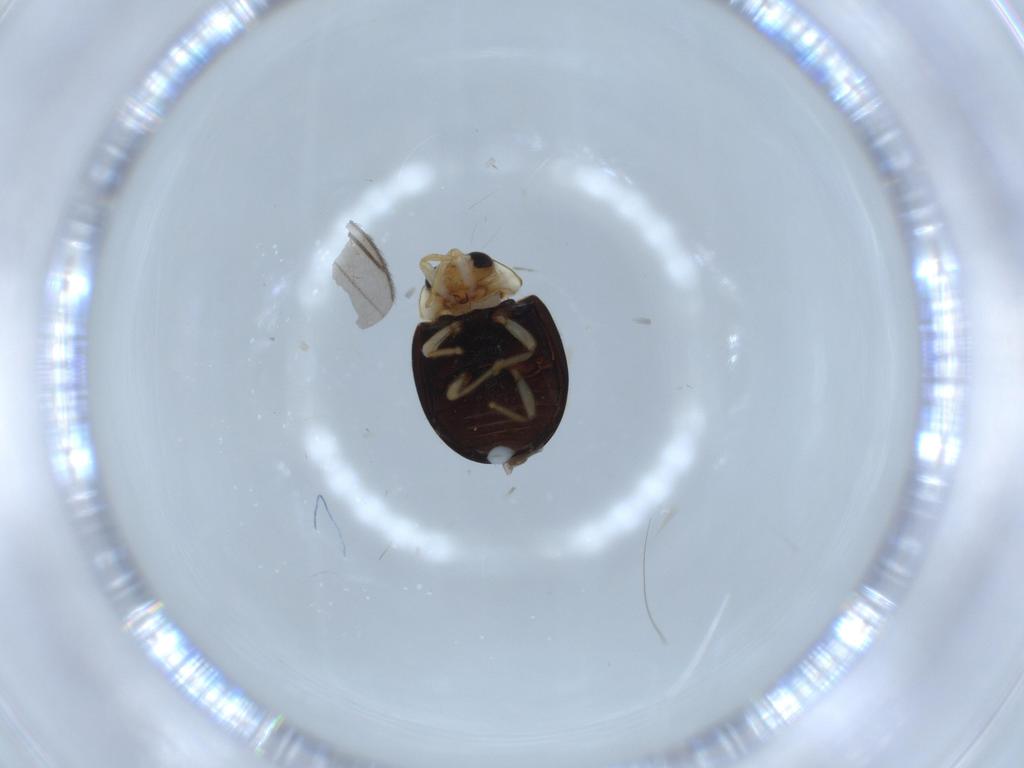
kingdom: Animalia
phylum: Arthropoda
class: Insecta
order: Coleoptera
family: Coccinellidae
